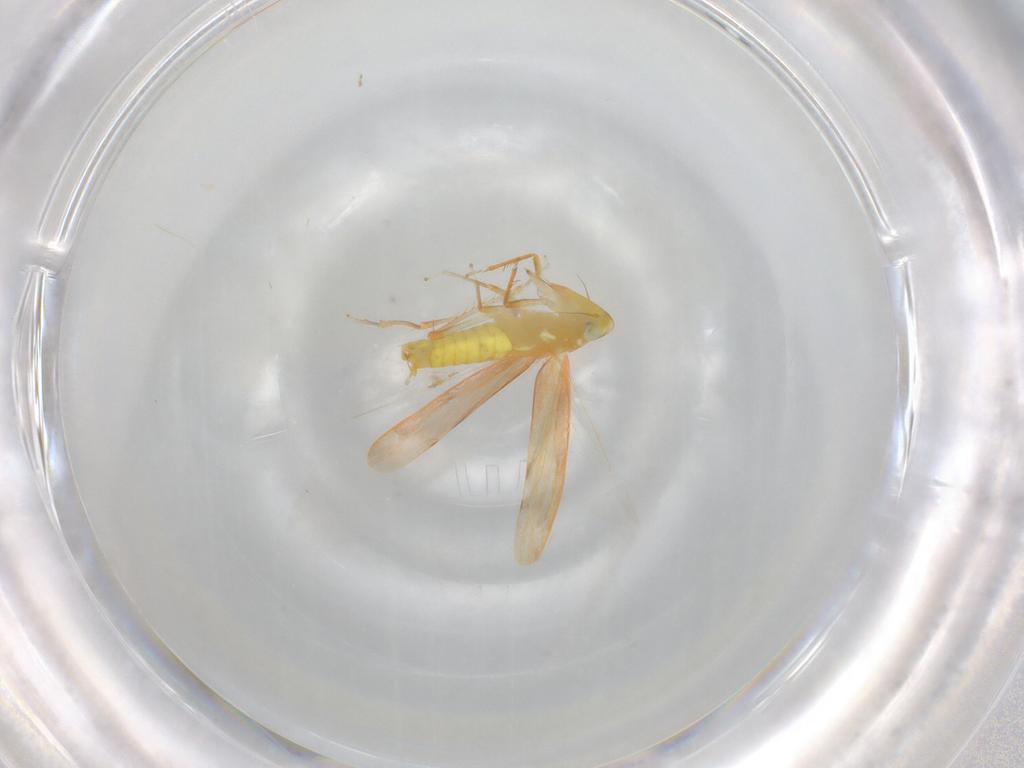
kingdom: Animalia
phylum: Arthropoda
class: Insecta
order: Hemiptera
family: Cicadellidae
